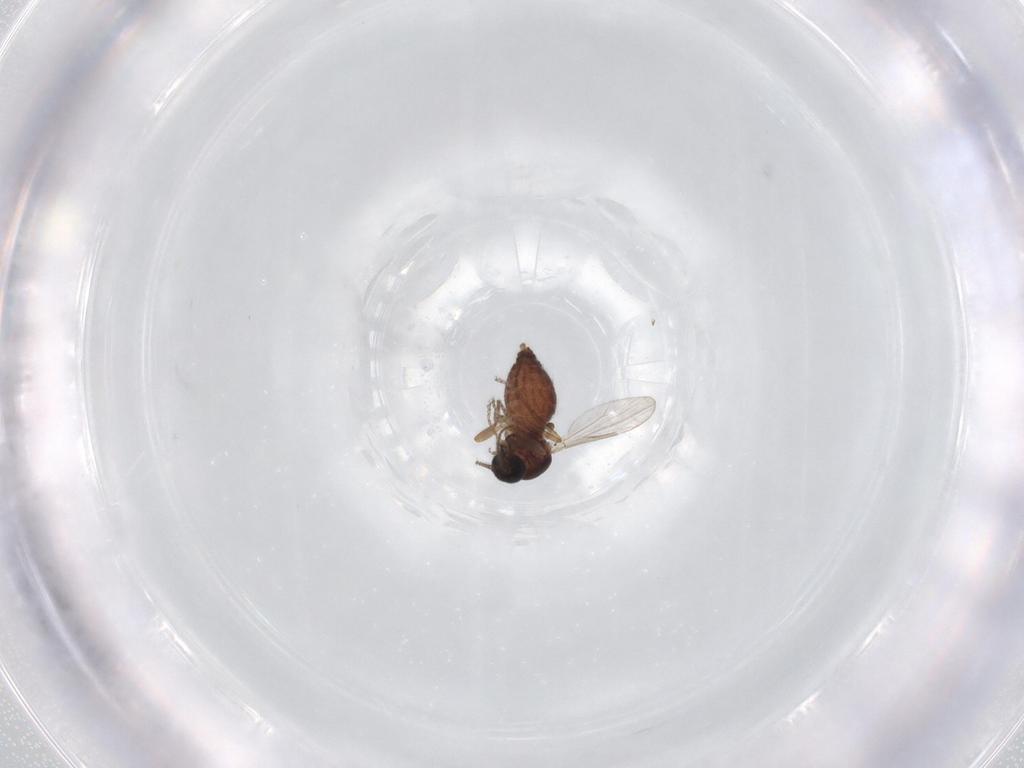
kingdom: Animalia
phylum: Arthropoda
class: Insecta
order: Diptera
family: Ceratopogonidae
